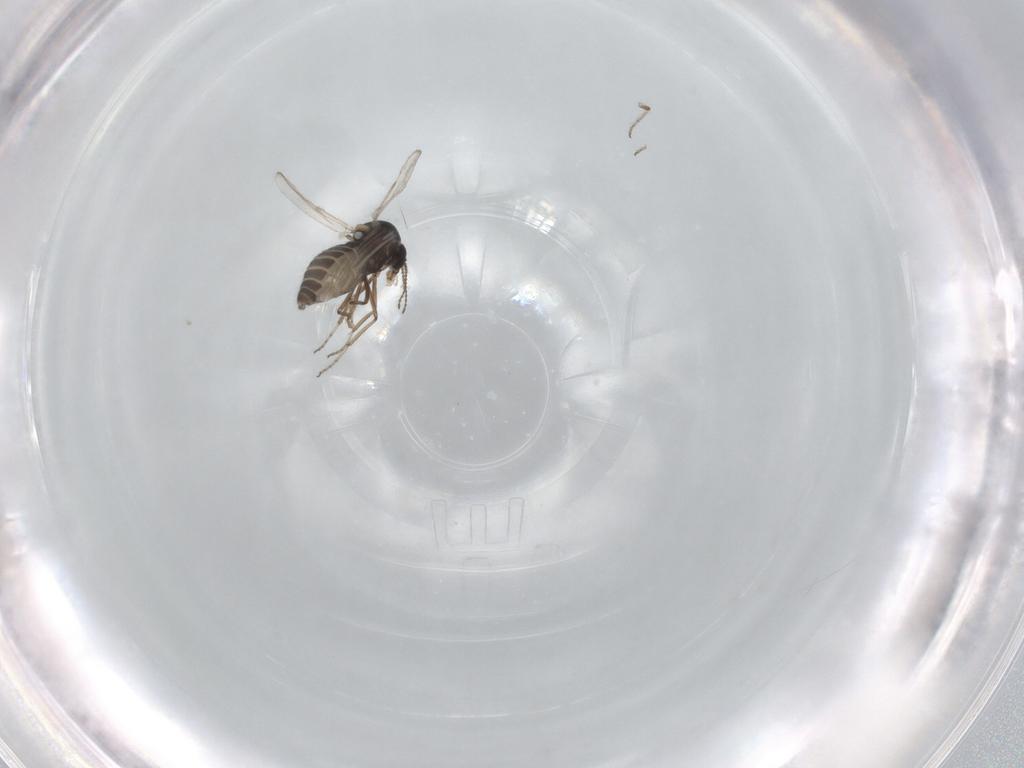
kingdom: Animalia
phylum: Arthropoda
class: Insecta
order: Diptera
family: Ceratopogonidae
